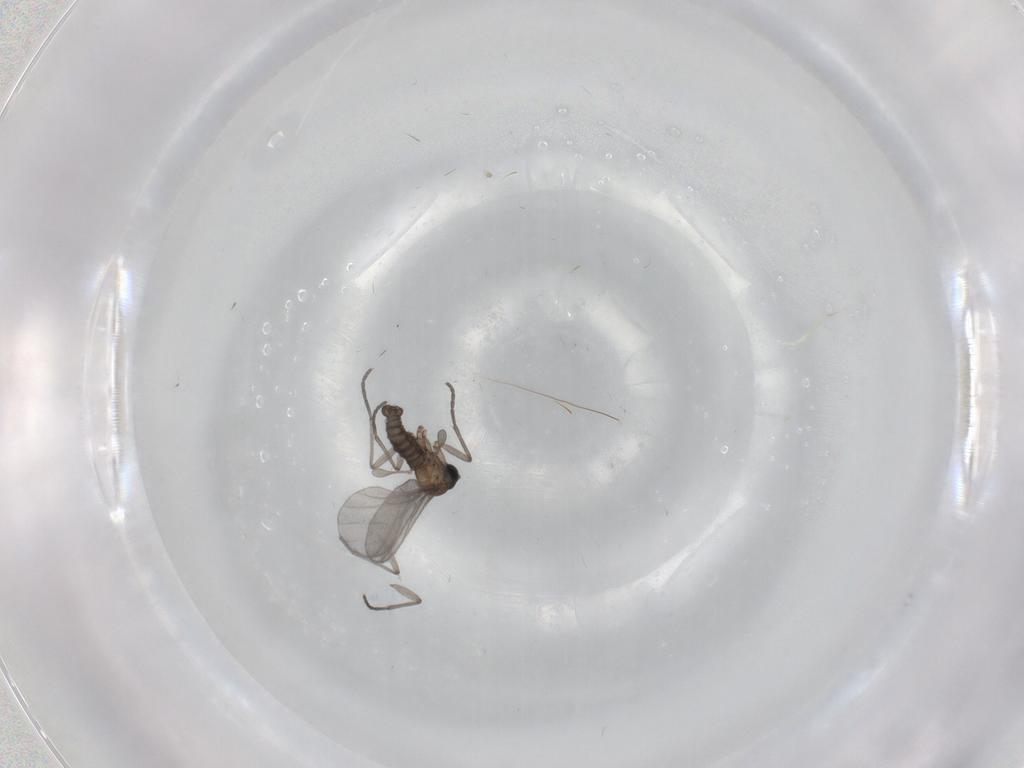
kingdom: Animalia
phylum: Arthropoda
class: Insecta
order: Diptera
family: Sciaridae
